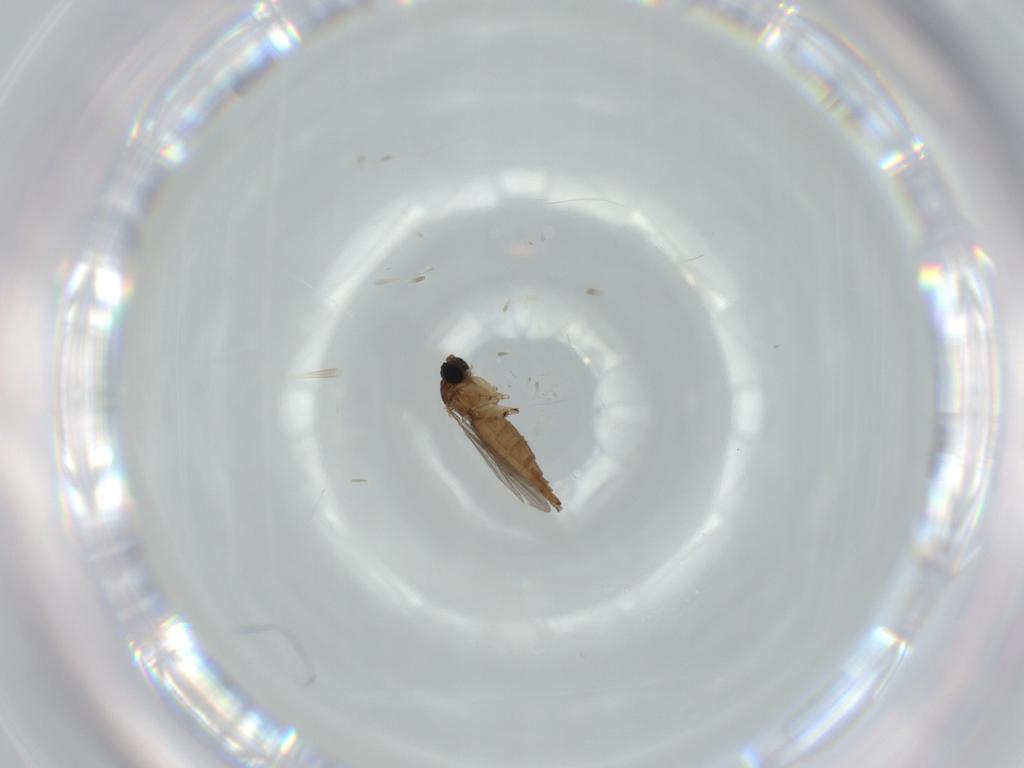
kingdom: Animalia
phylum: Arthropoda
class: Insecta
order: Diptera
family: Sciaridae
